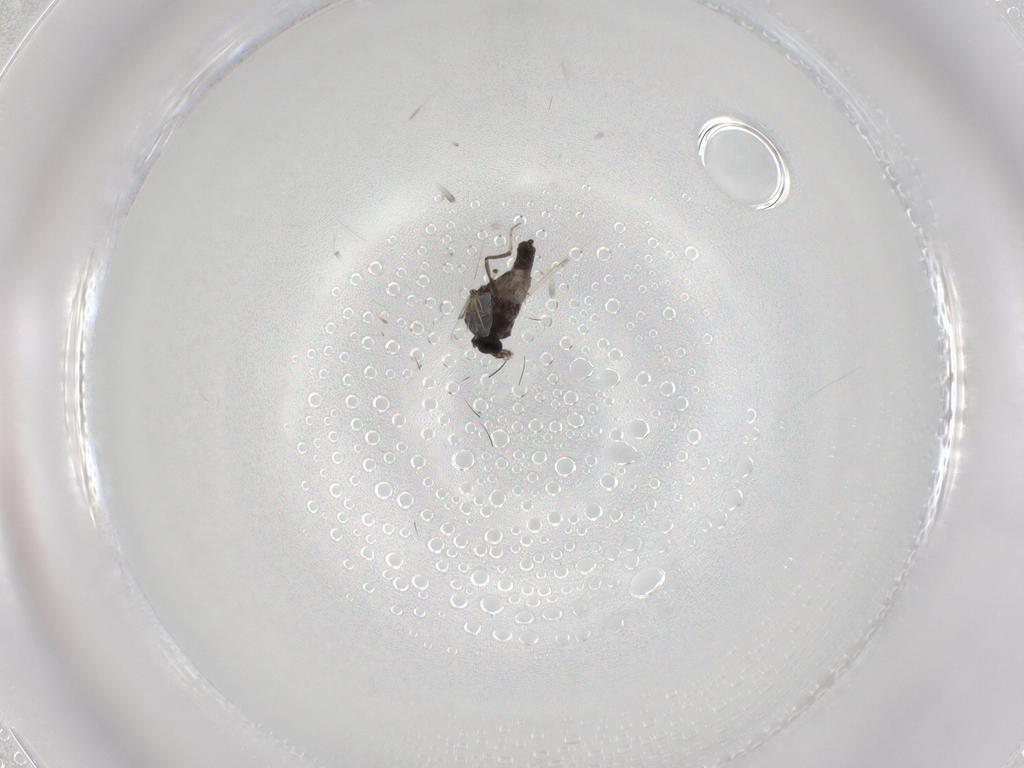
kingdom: Animalia
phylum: Arthropoda
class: Insecta
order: Diptera
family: Ceratopogonidae
